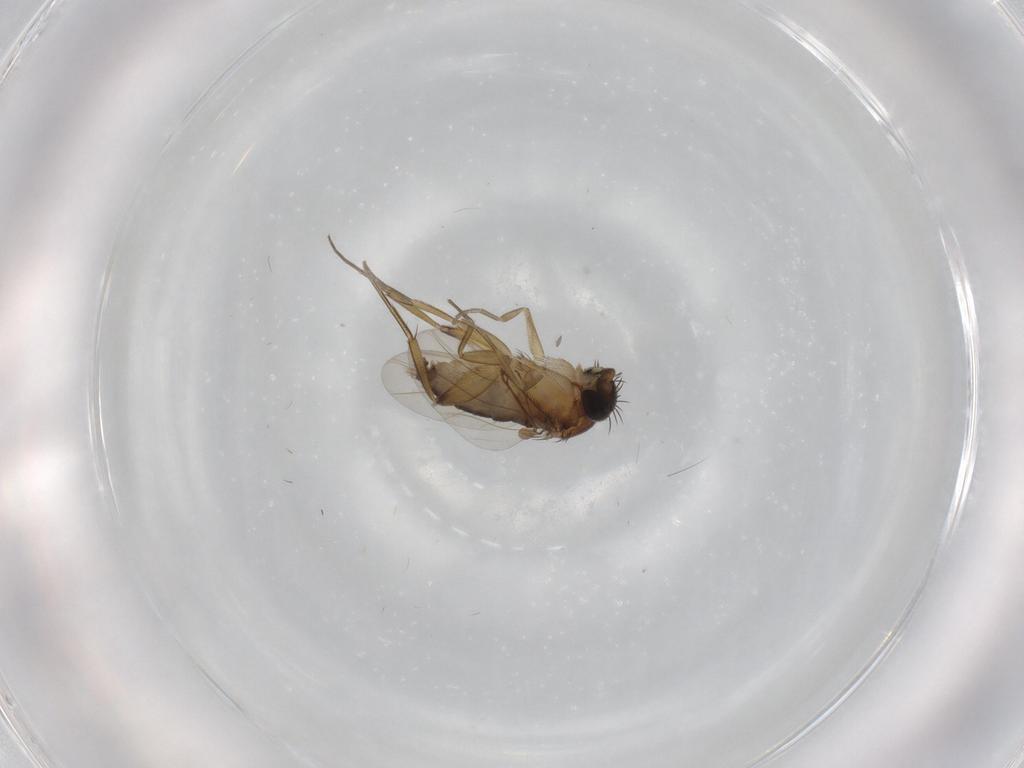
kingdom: Animalia
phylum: Arthropoda
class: Insecta
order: Diptera
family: Phoridae
